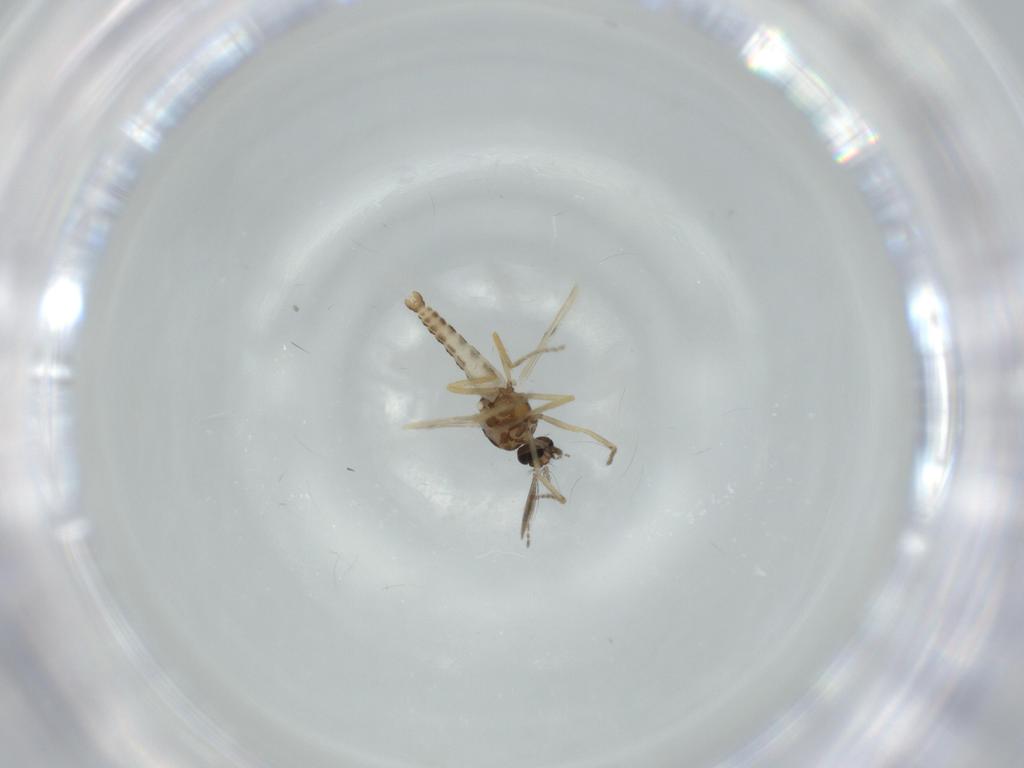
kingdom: Animalia
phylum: Arthropoda
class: Insecta
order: Diptera
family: Ceratopogonidae
